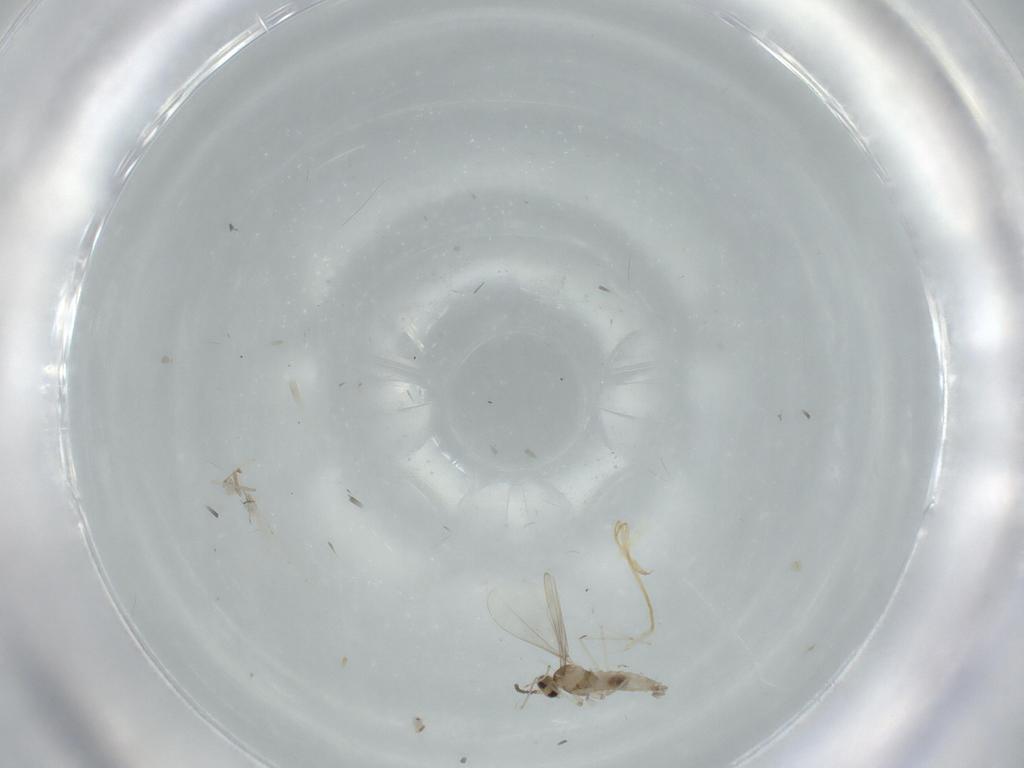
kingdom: Animalia
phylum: Arthropoda
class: Insecta
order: Diptera
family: Cecidomyiidae
